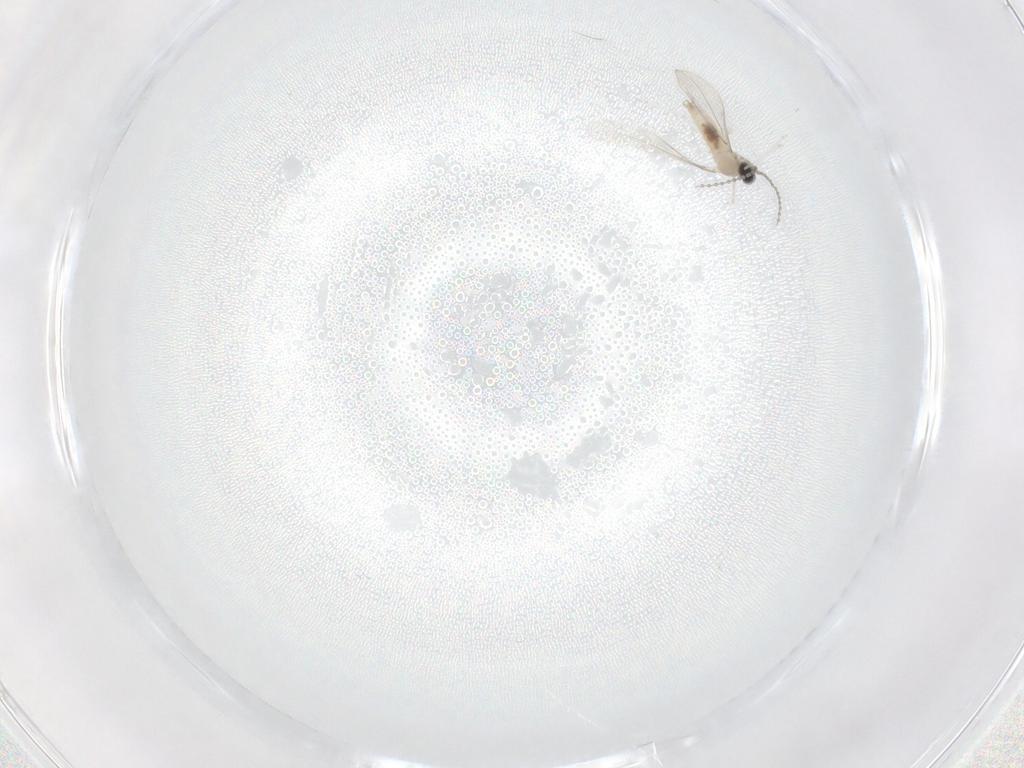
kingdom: Animalia
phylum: Arthropoda
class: Insecta
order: Diptera
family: Cecidomyiidae
